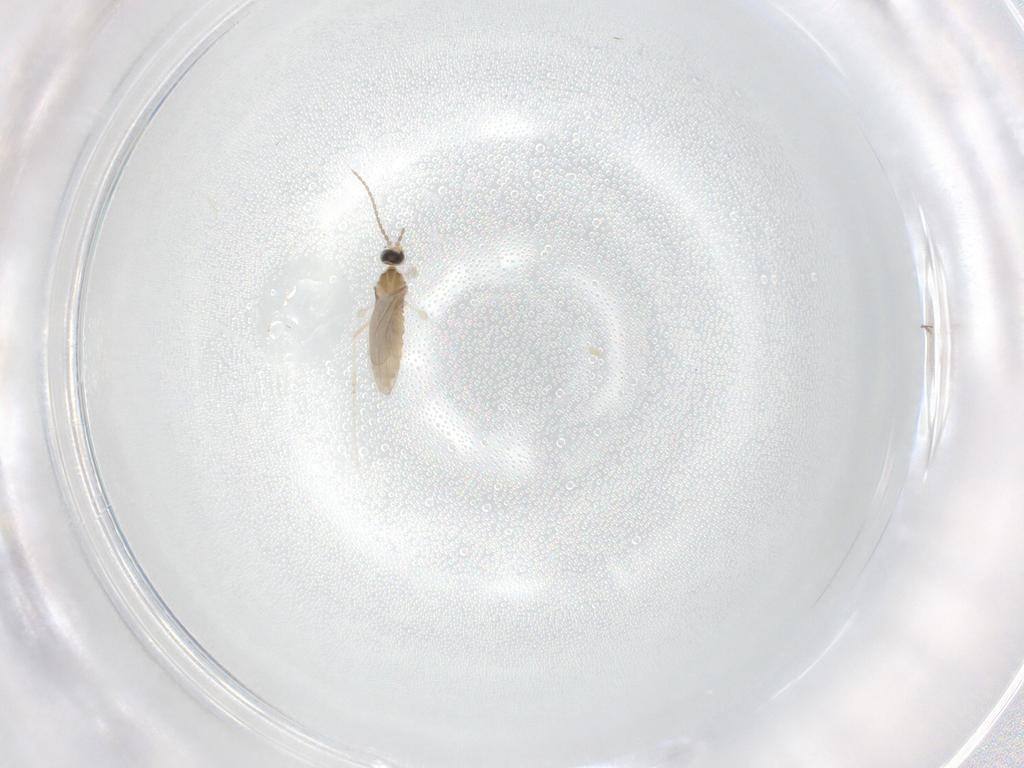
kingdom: Animalia
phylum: Arthropoda
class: Insecta
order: Diptera
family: Cecidomyiidae
